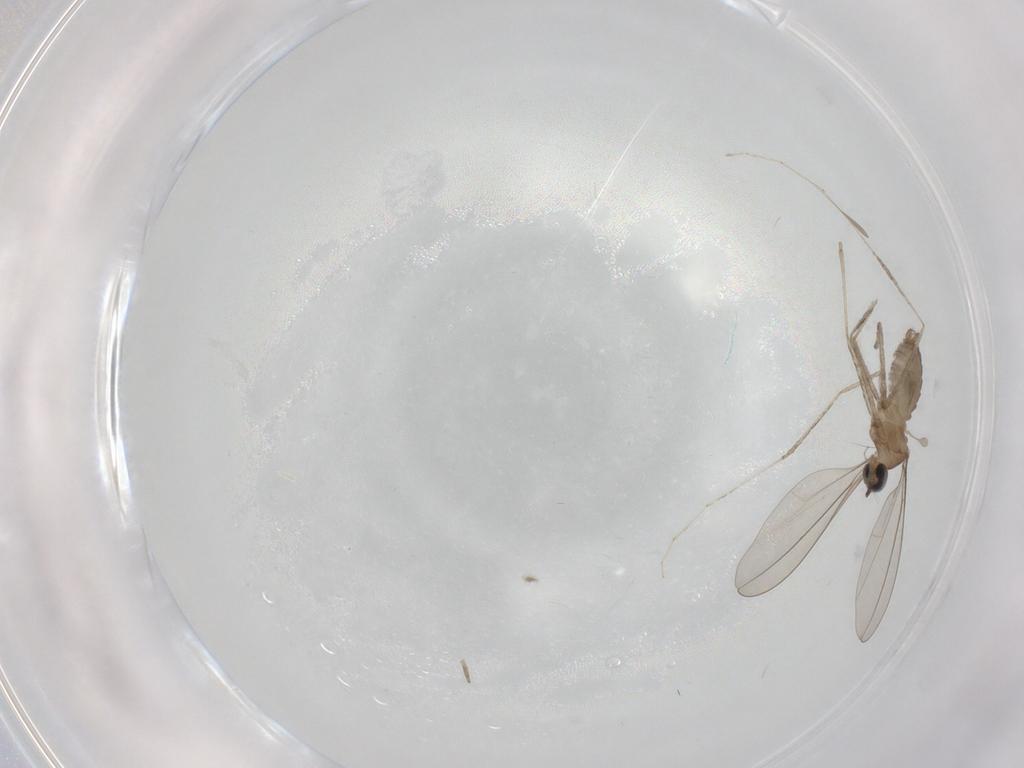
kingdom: Animalia
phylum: Arthropoda
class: Insecta
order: Diptera
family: Cecidomyiidae
